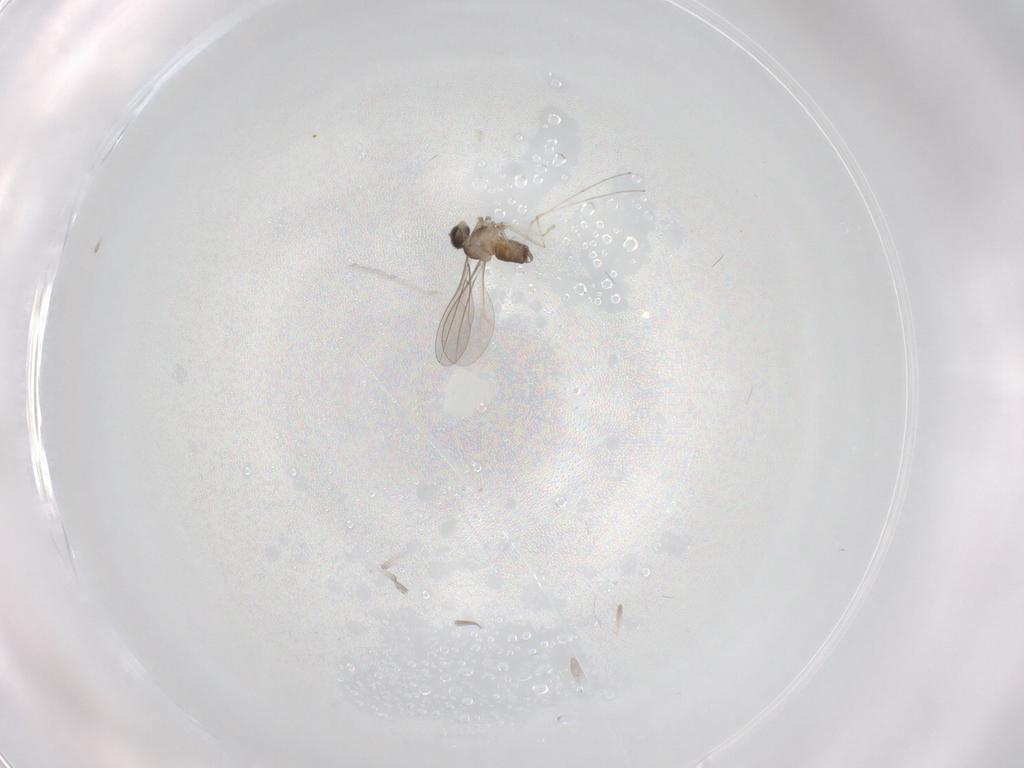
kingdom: Animalia
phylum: Arthropoda
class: Insecta
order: Diptera
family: Cecidomyiidae
